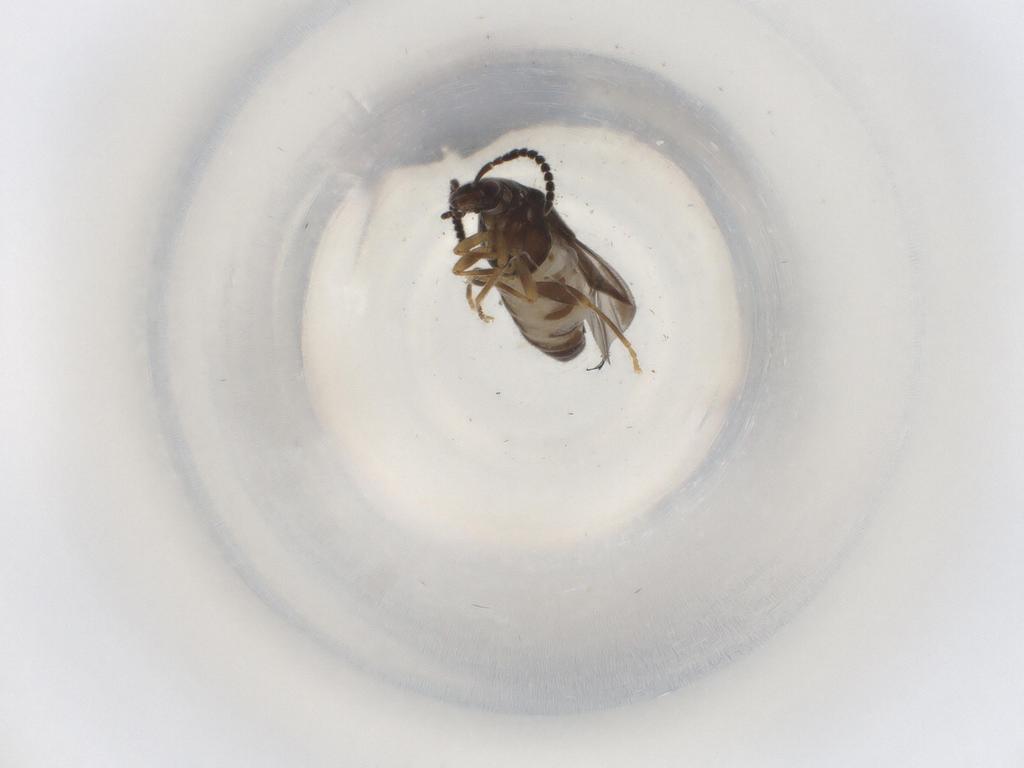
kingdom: Animalia
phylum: Arthropoda
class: Insecta
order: Coleoptera
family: Cantharidae
